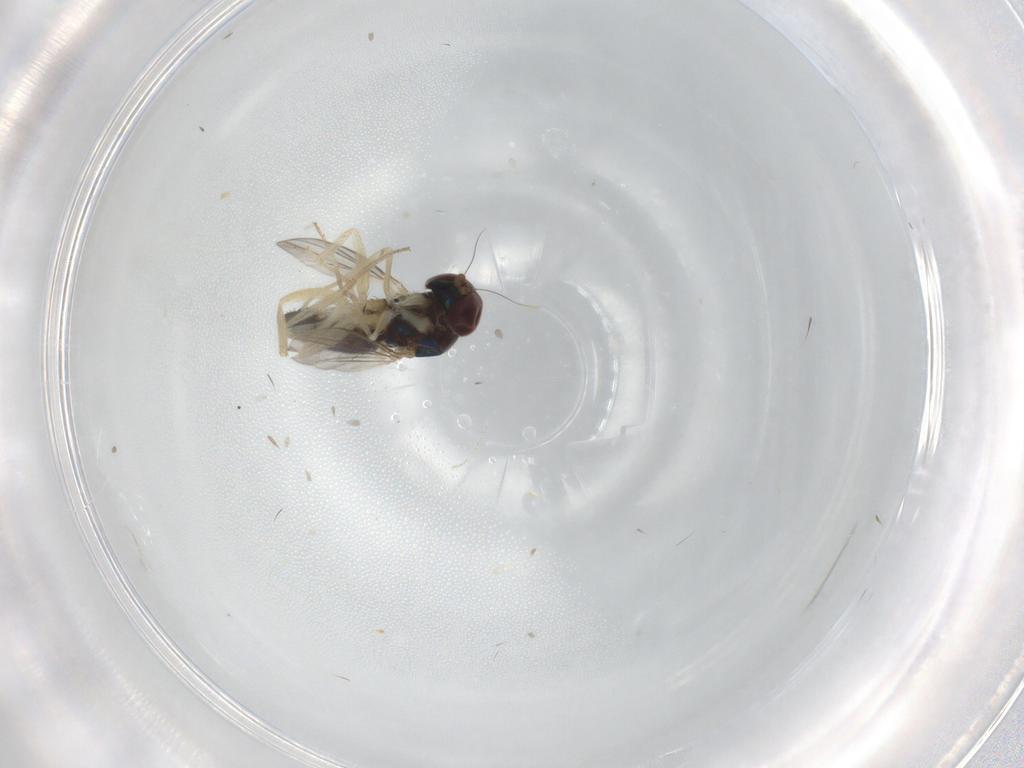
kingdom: Animalia
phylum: Arthropoda
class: Insecta
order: Diptera
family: Dolichopodidae
